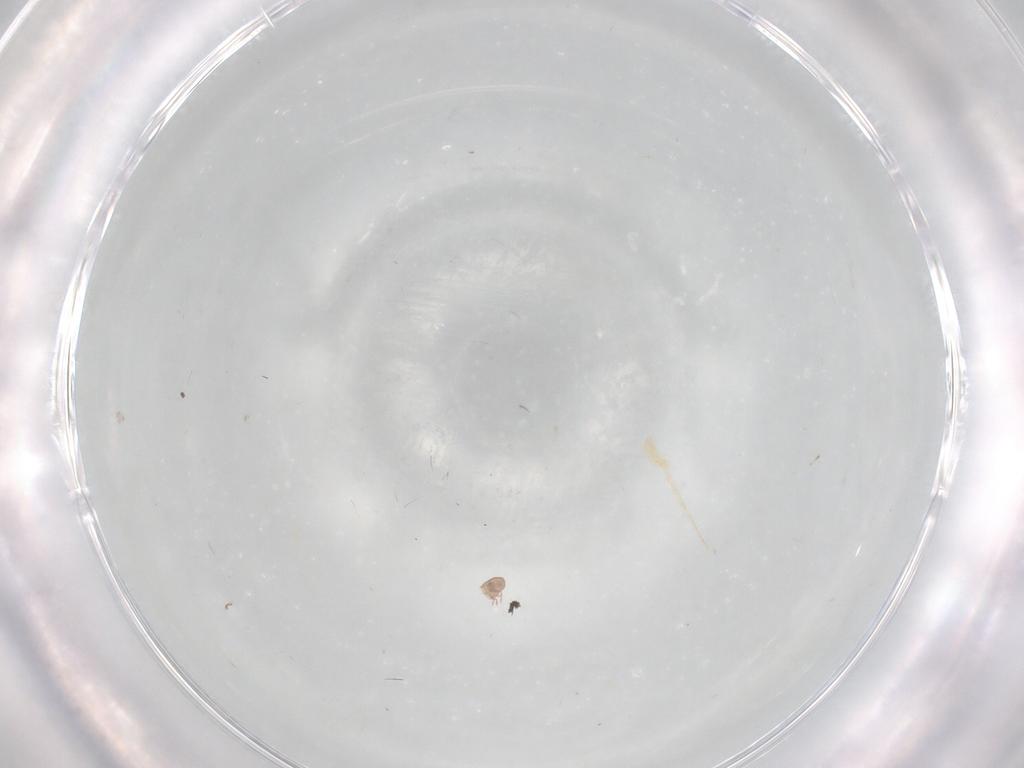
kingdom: Animalia
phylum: Arthropoda
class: Arachnida
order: Sarcoptiformes
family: Eremaeidae
